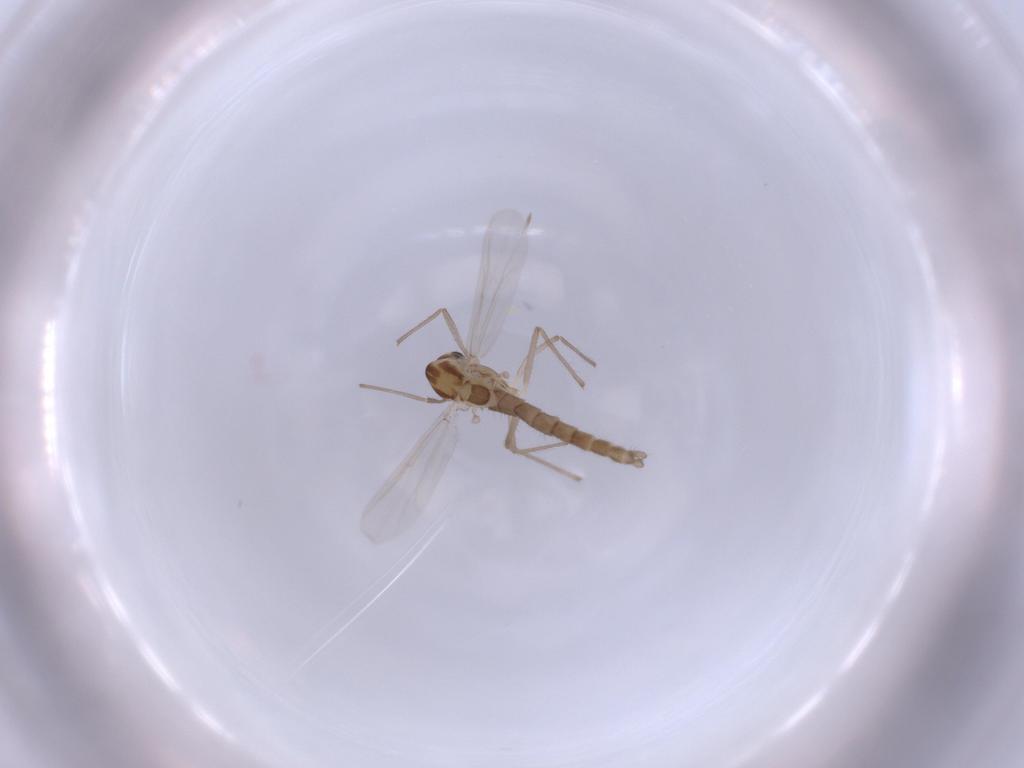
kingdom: Animalia
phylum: Arthropoda
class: Insecta
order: Diptera
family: Chironomidae
